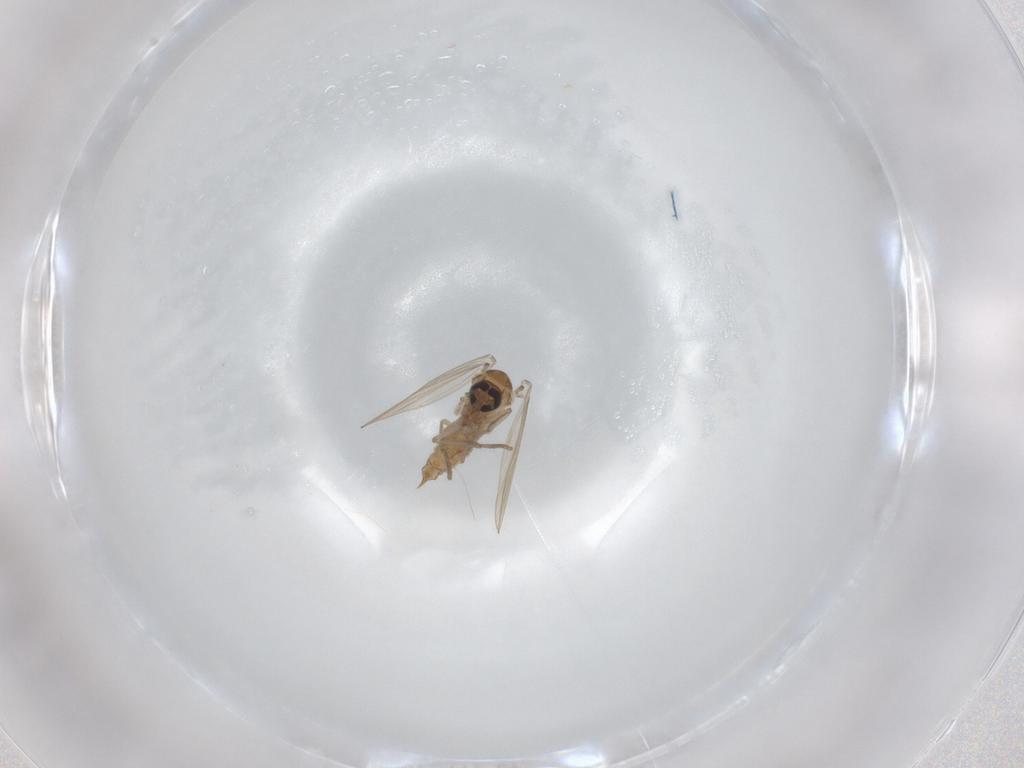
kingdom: Animalia
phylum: Arthropoda
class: Insecta
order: Diptera
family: Psychodidae
